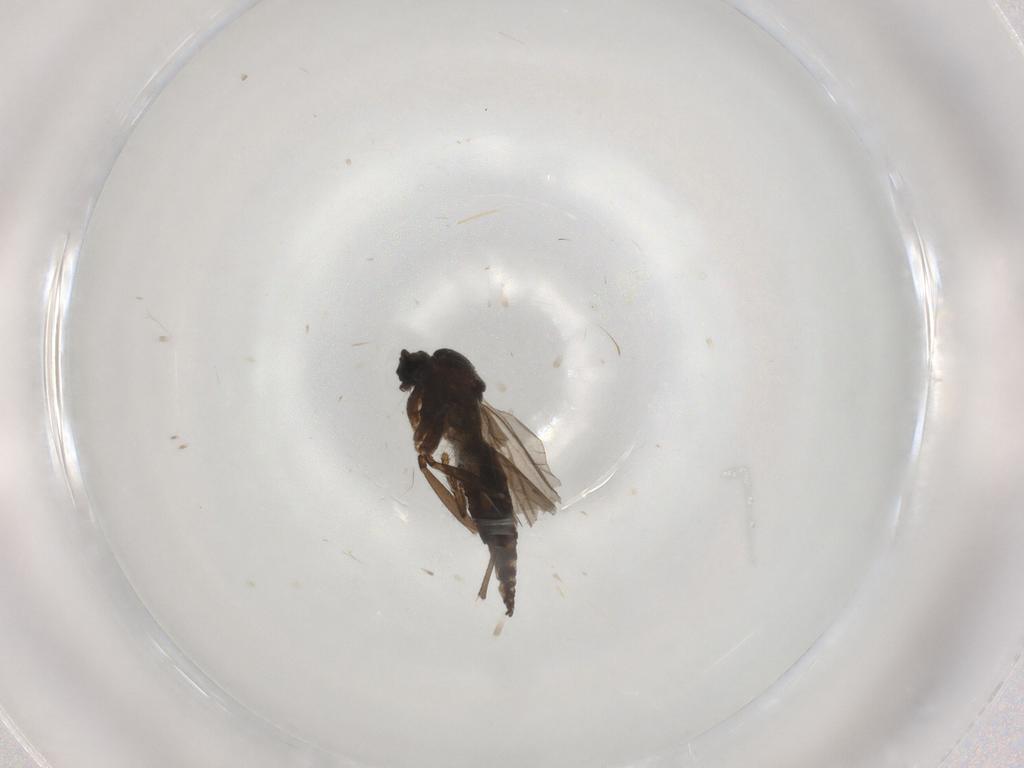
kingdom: Animalia
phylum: Arthropoda
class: Insecta
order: Diptera
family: Sciaridae
